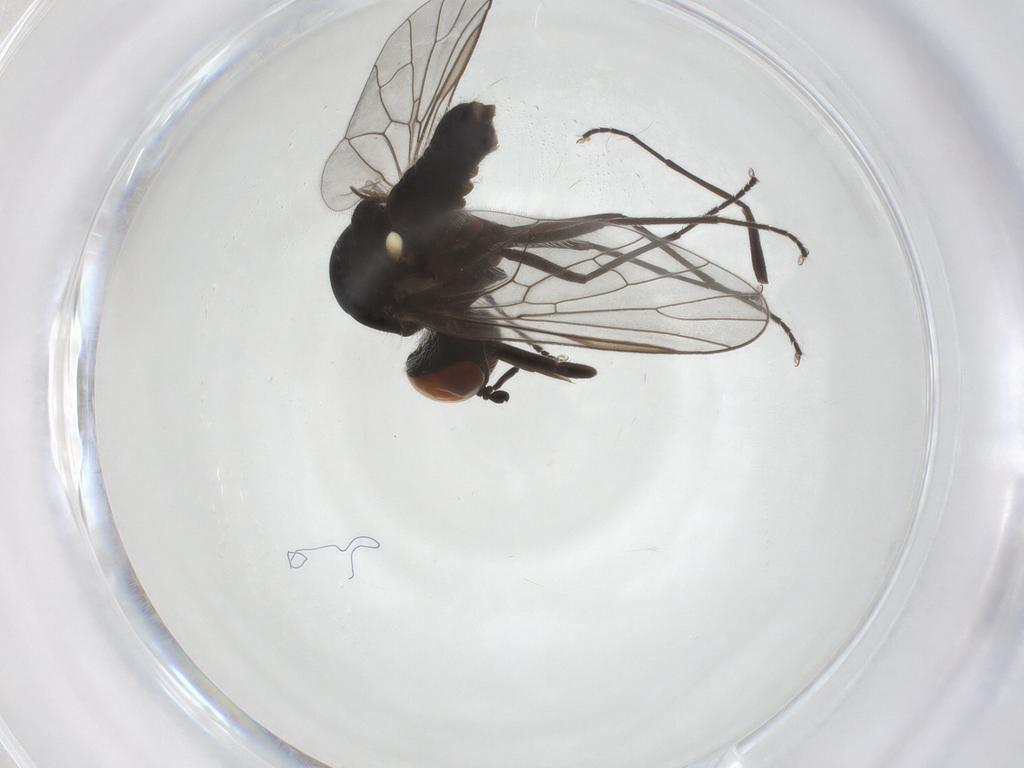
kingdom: Animalia
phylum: Arthropoda
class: Insecta
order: Diptera
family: Bombyliidae
